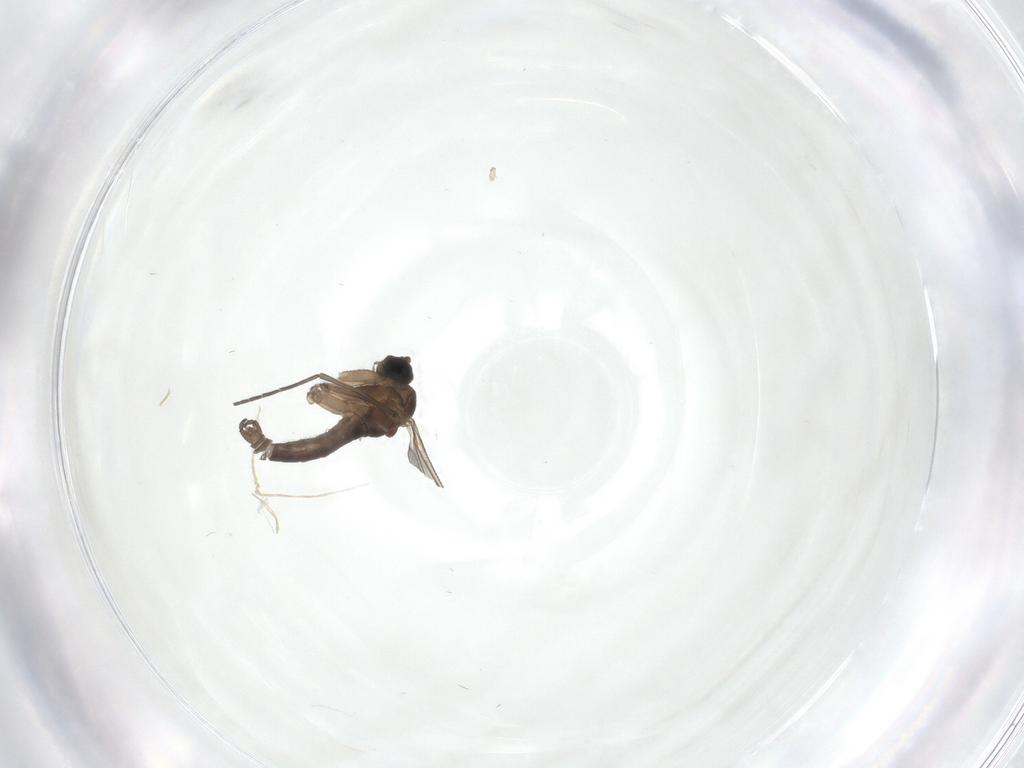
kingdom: Animalia
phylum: Arthropoda
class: Insecta
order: Diptera
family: Sciaridae
